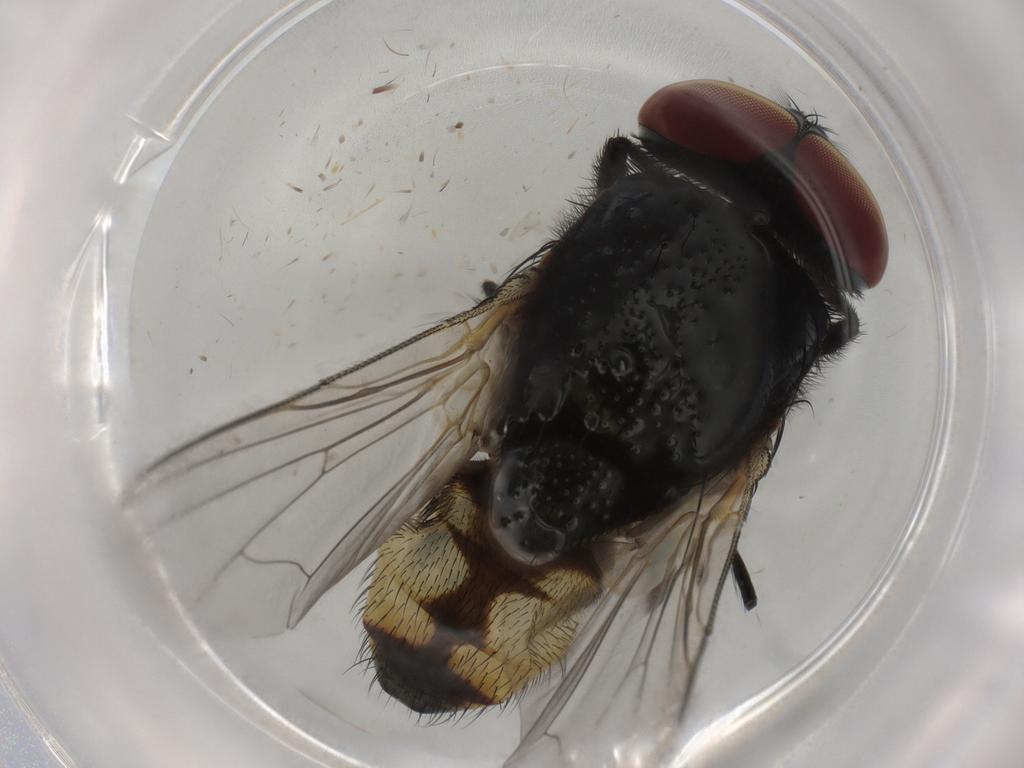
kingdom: Animalia
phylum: Arthropoda
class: Insecta
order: Diptera
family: Muscidae
